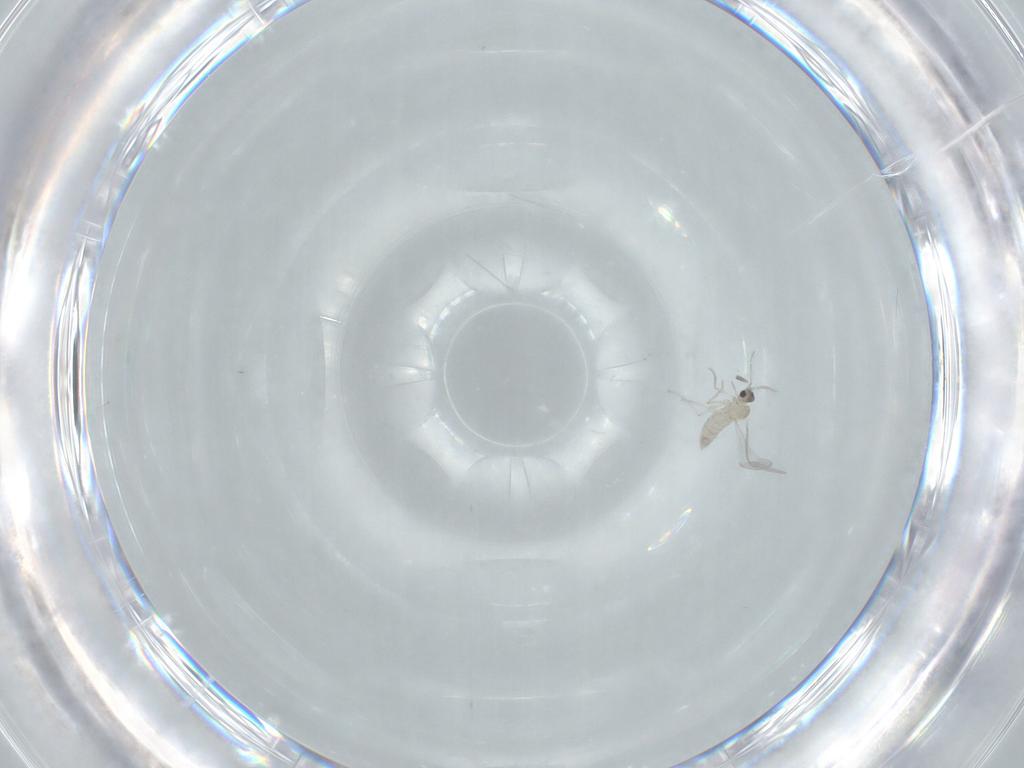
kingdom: Animalia
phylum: Arthropoda
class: Insecta
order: Diptera
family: Cecidomyiidae
